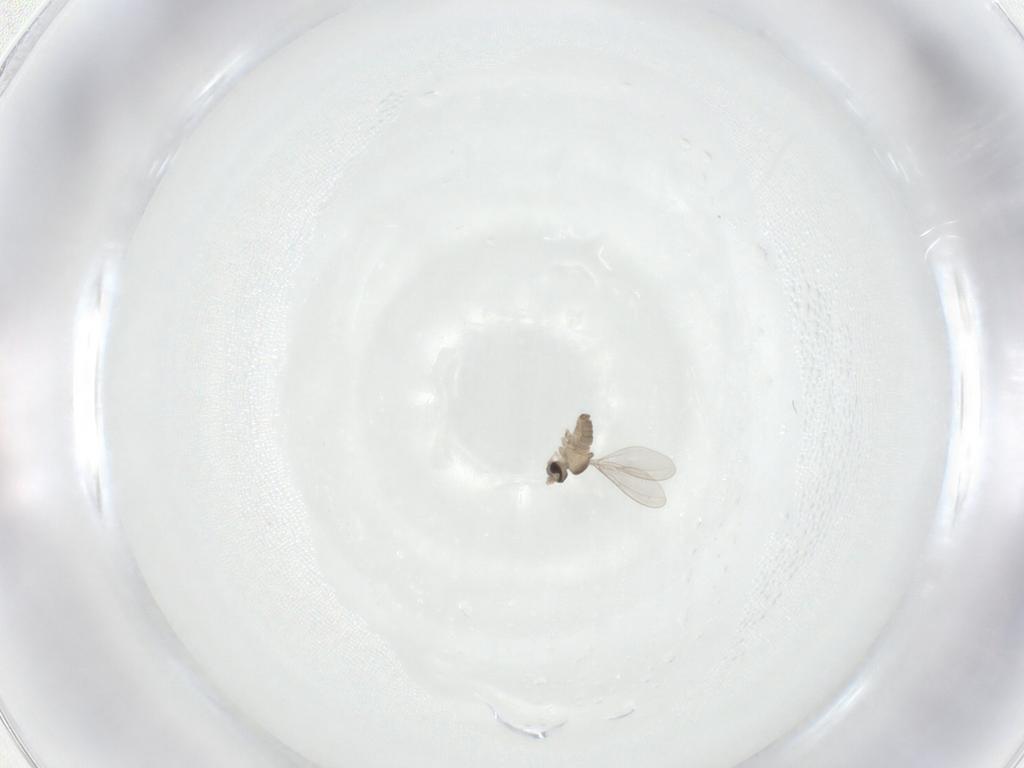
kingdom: Animalia
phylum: Arthropoda
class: Insecta
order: Diptera
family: Cecidomyiidae
